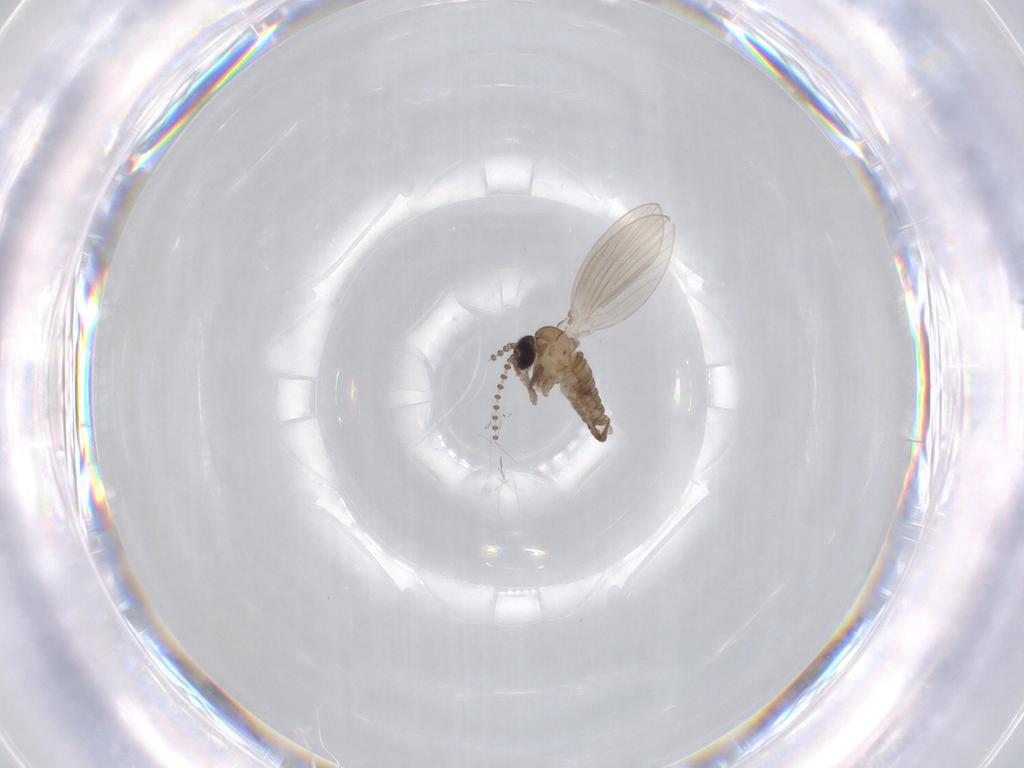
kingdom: Animalia
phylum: Arthropoda
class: Insecta
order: Diptera
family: Psychodidae
